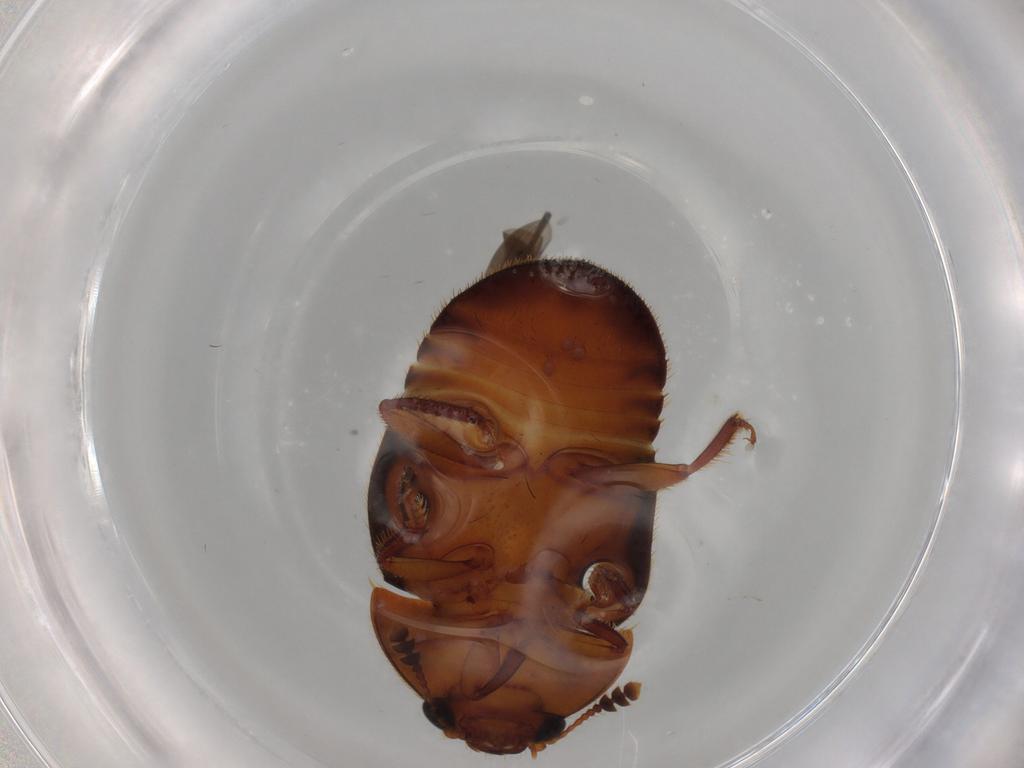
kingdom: Animalia
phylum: Arthropoda
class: Insecta
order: Coleoptera
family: Nitidulidae
